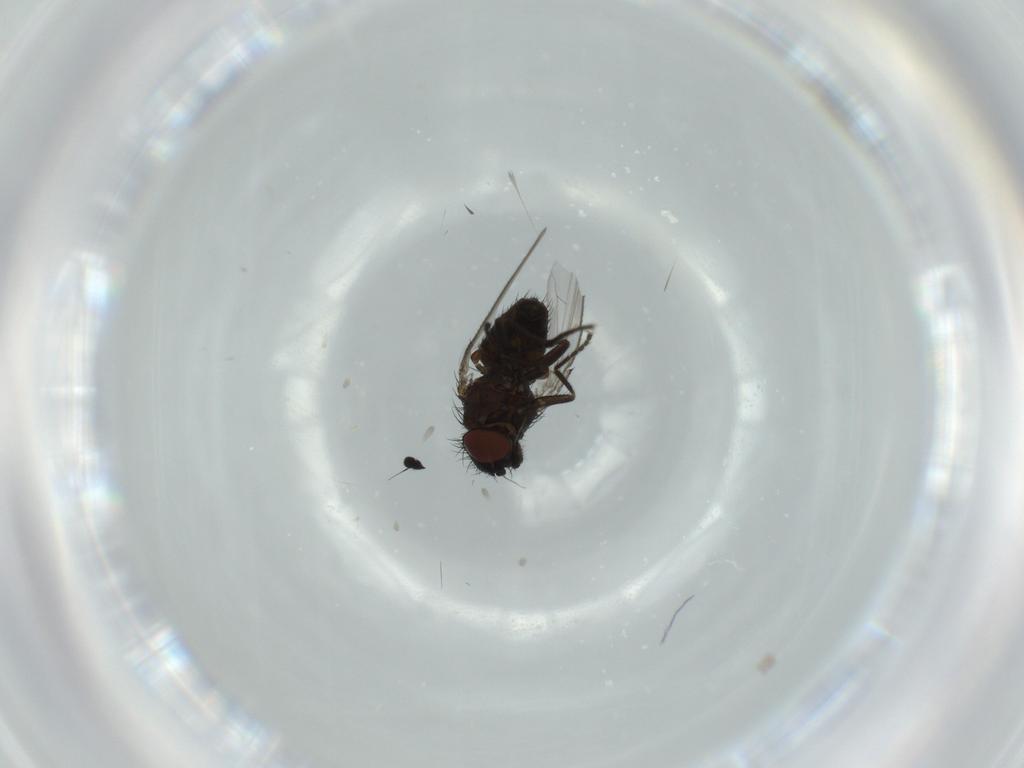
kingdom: Animalia
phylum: Arthropoda
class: Insecta
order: Diptera
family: Milichiidae
